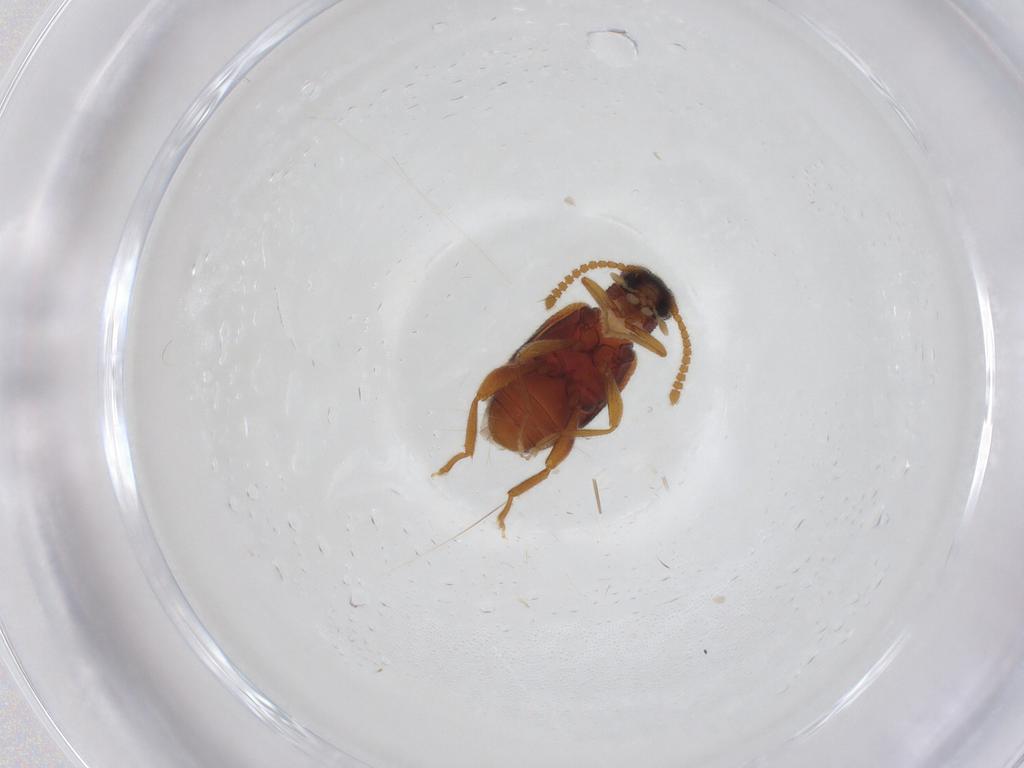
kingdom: Animalia
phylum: Arthropoda
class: Insecta
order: Coleoptera
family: Aderidae
